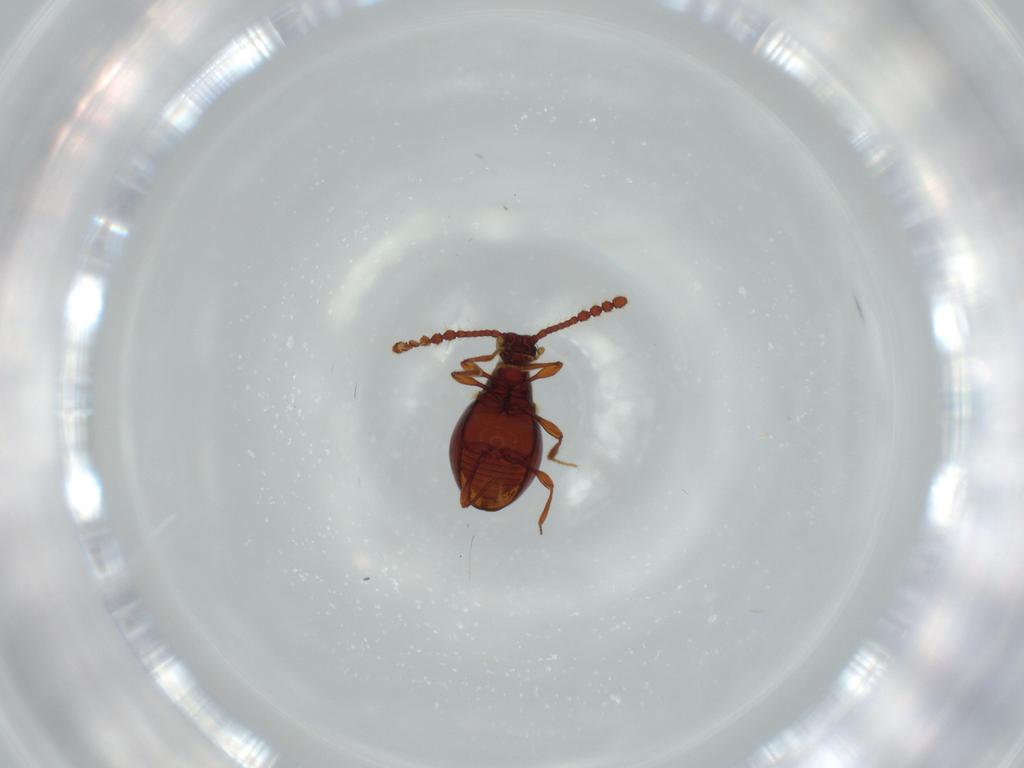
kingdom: Animalia
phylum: Arthropoda
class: Insecta
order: Coleoptera
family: Staphylinidae
